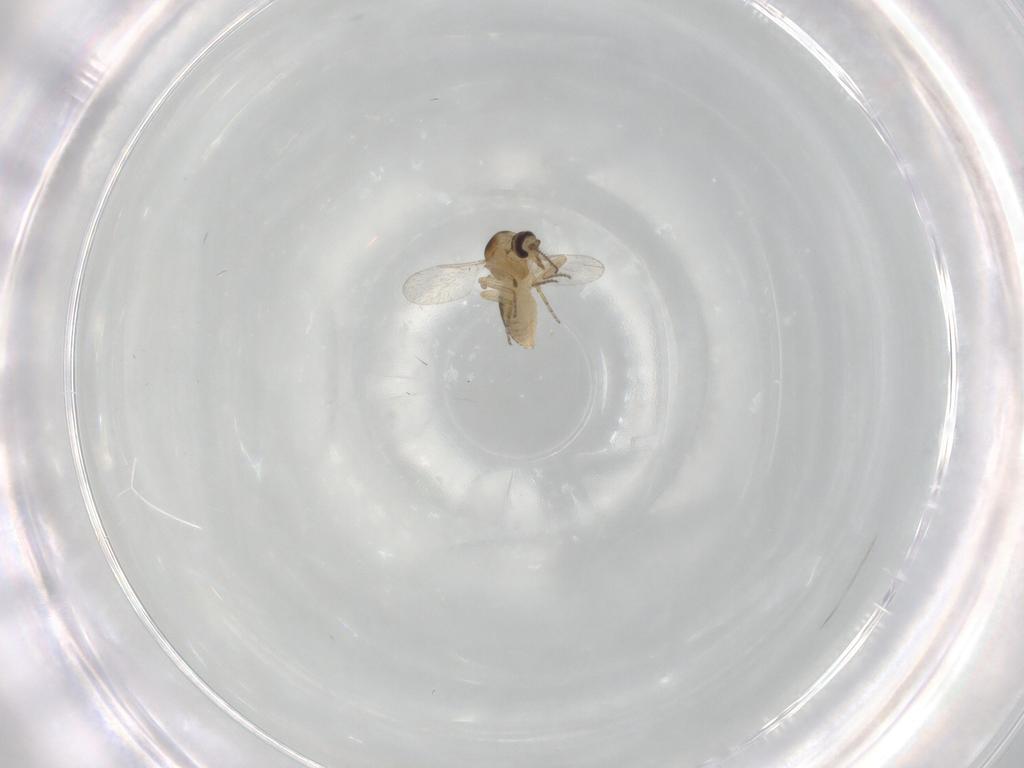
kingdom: Animalia
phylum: Arthropoda
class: Insecta
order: Diptera
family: Ceratopogonidae
